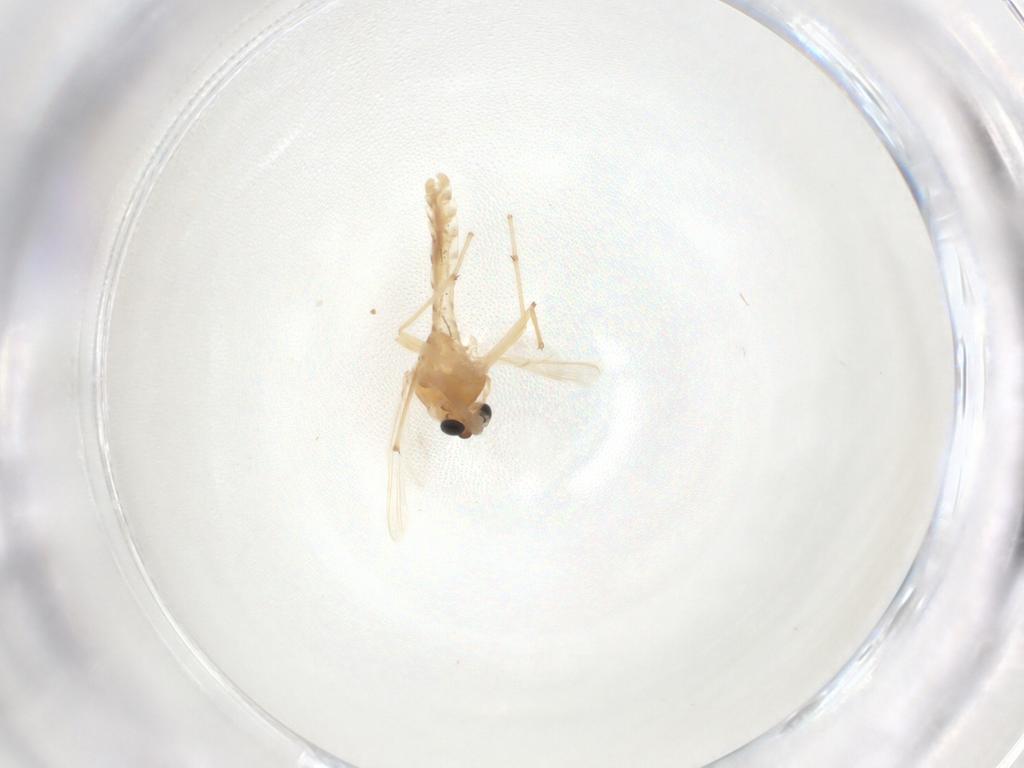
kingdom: Animalia
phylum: Arthropoda
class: Insecta
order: Diptera
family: Chironomidae
